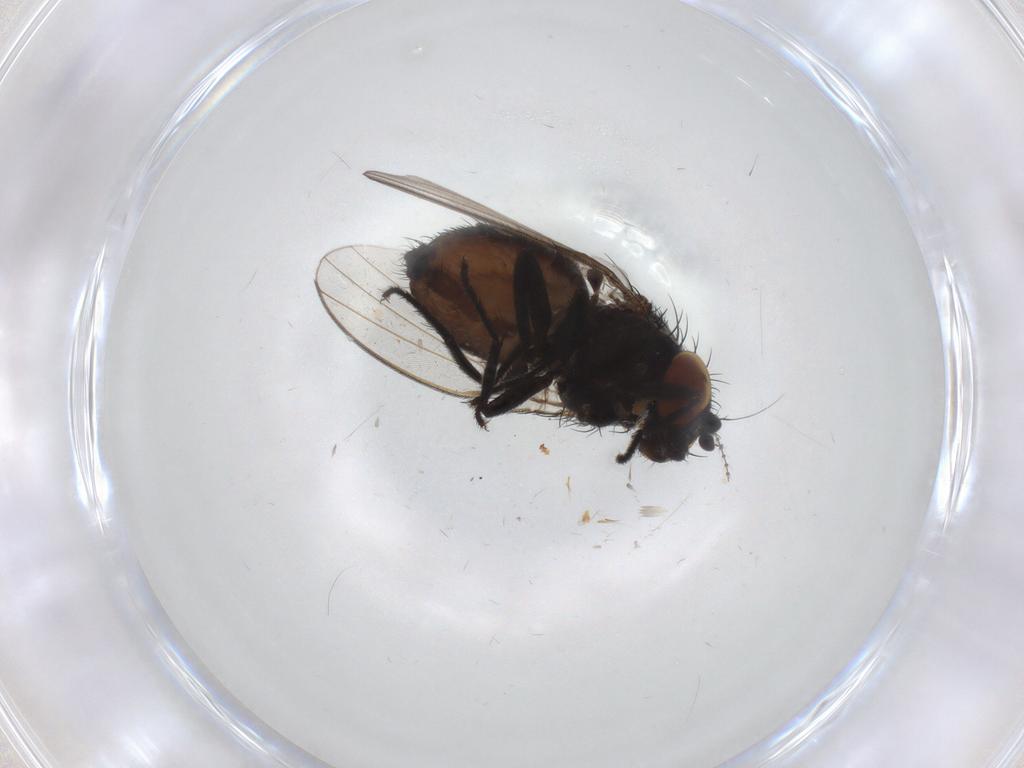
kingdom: Animalia
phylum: Arthropoda
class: Insecta
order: Diptera
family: Milichiidae
